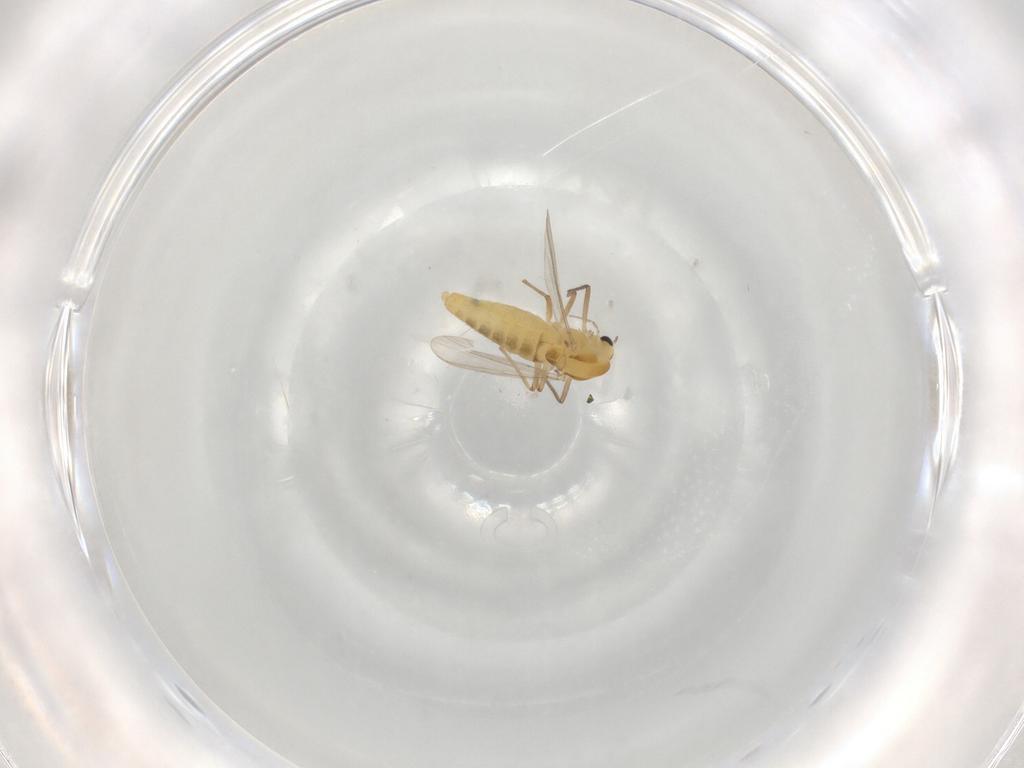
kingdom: Animalia
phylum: Arthropoda
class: Insecta
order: Diptera
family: Chironomidae
